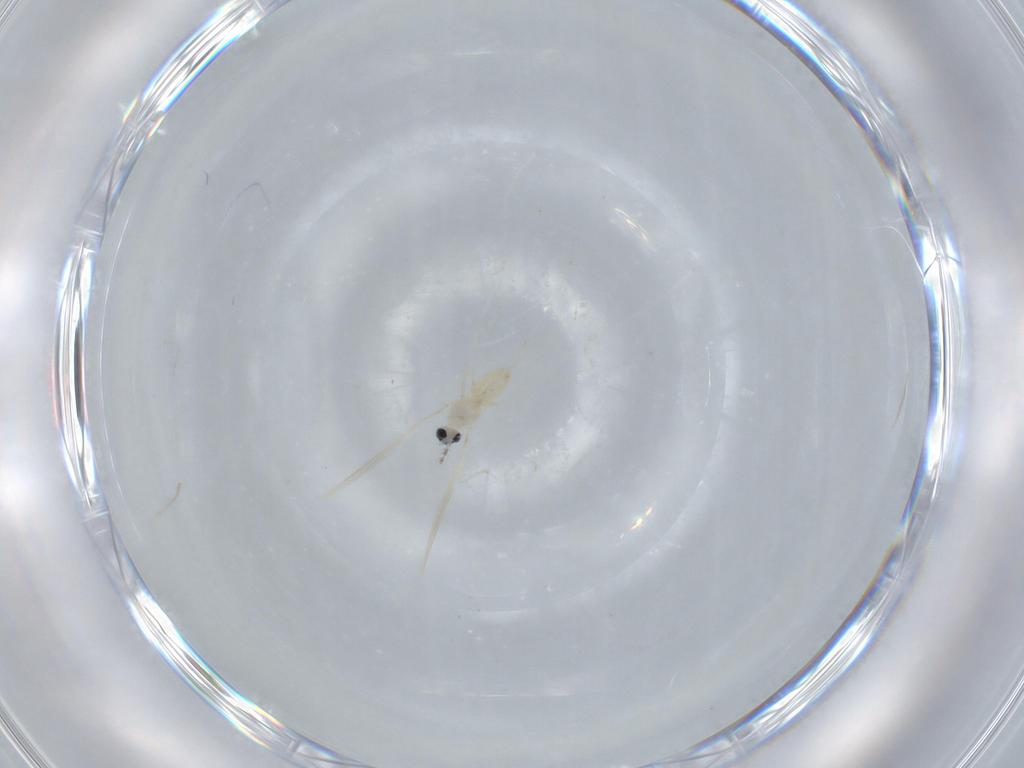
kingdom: Animalia
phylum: Arthropoda
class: Insecta
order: Diptera
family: Cecidomyiidae
